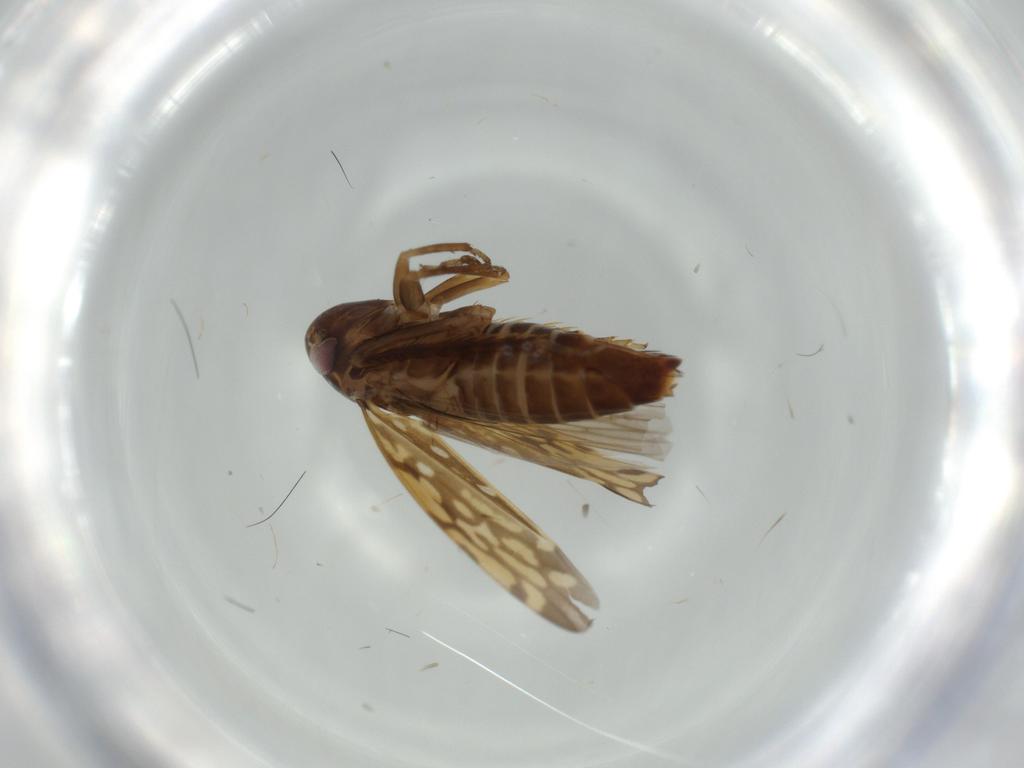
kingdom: Animalia
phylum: Arthropoda
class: Insecta
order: Hemiptera
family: Cicadellidae
